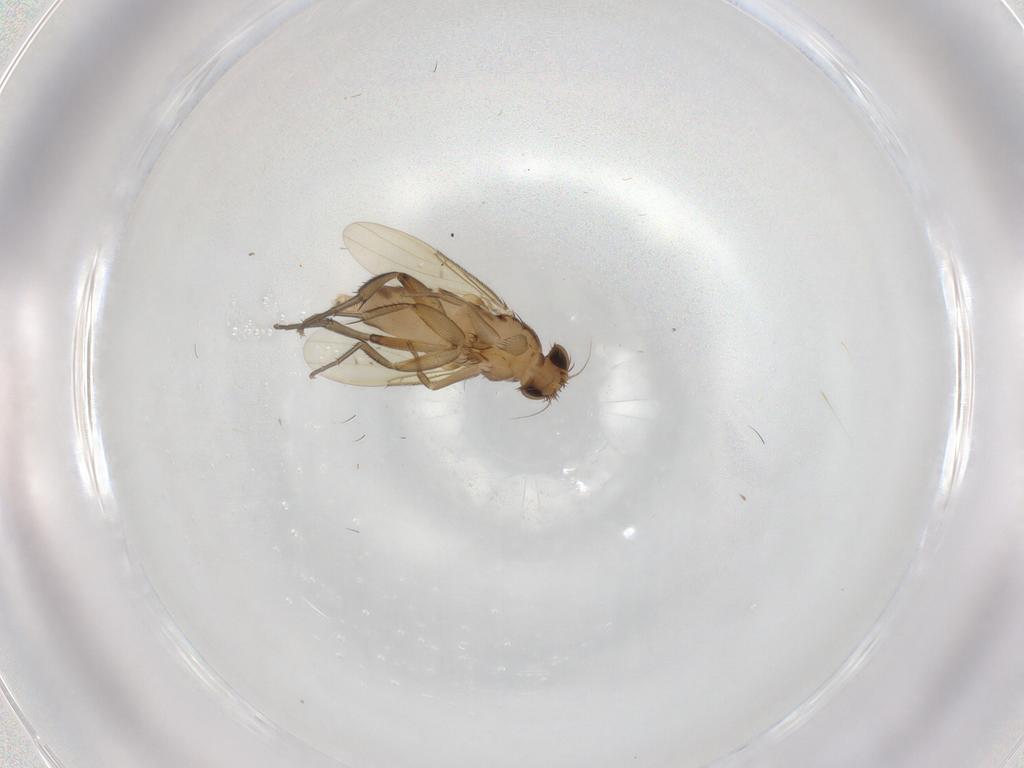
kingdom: Animalia
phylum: Arthropoda
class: Insecta
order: Diptera
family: Phoridae
